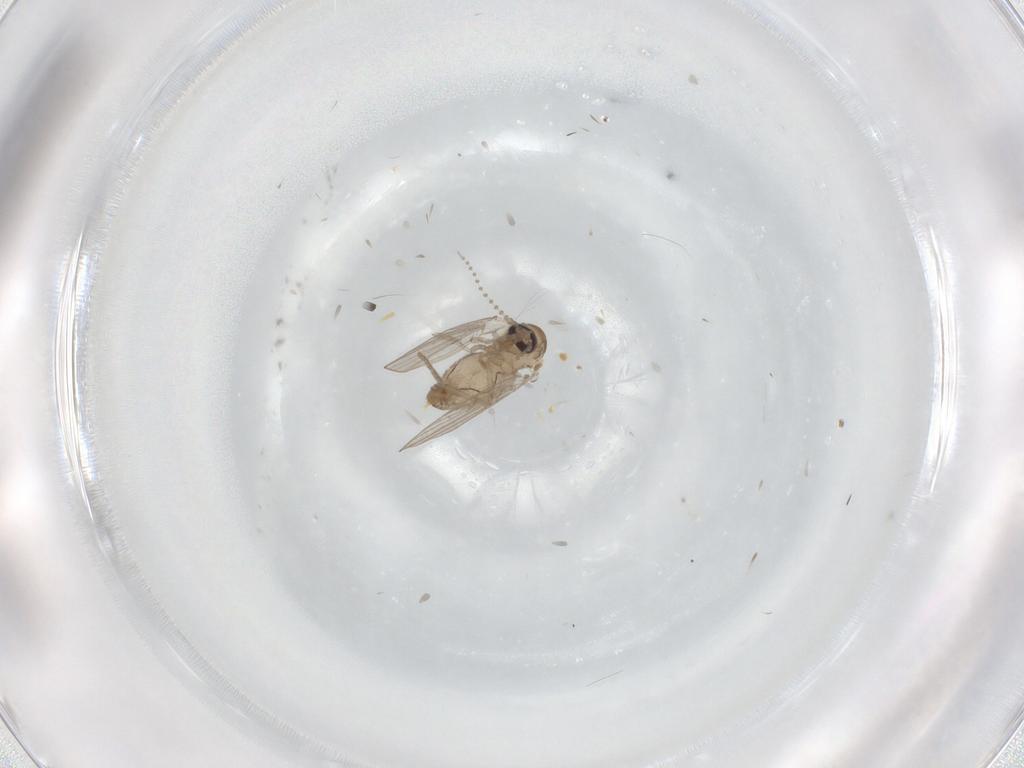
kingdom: Animalia
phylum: Arthropoda
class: Insecta
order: Diptera
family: Psychodidae
